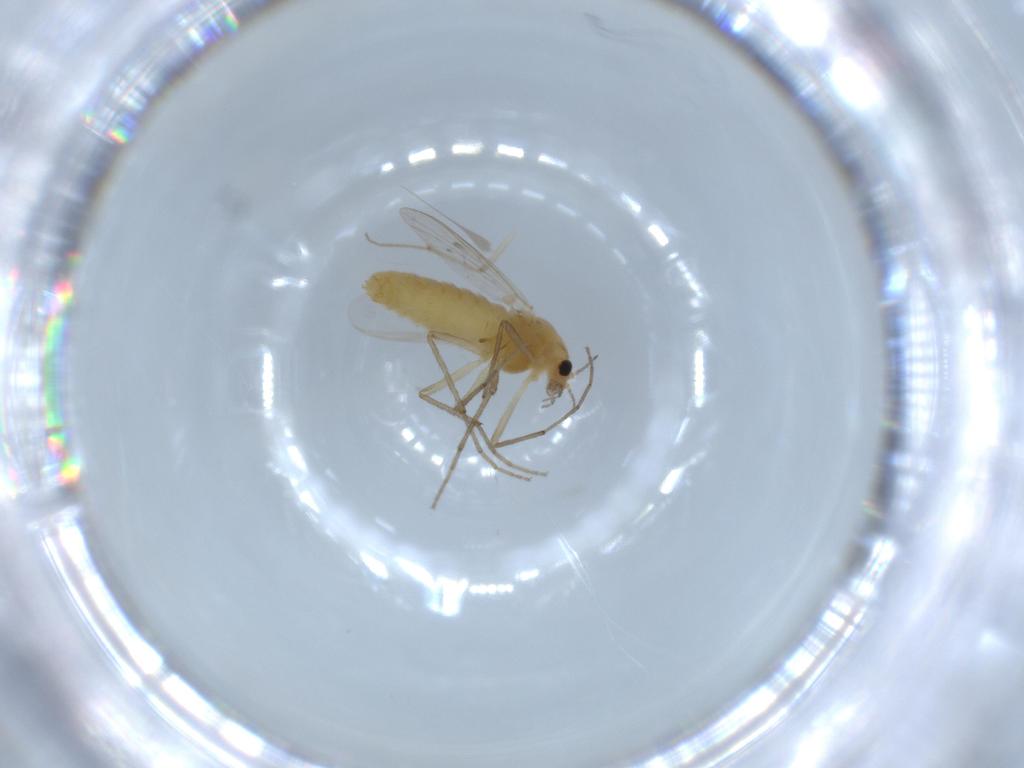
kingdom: Animalia
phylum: Arthropoda
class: Insecta
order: Diptera
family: Chironomidae
